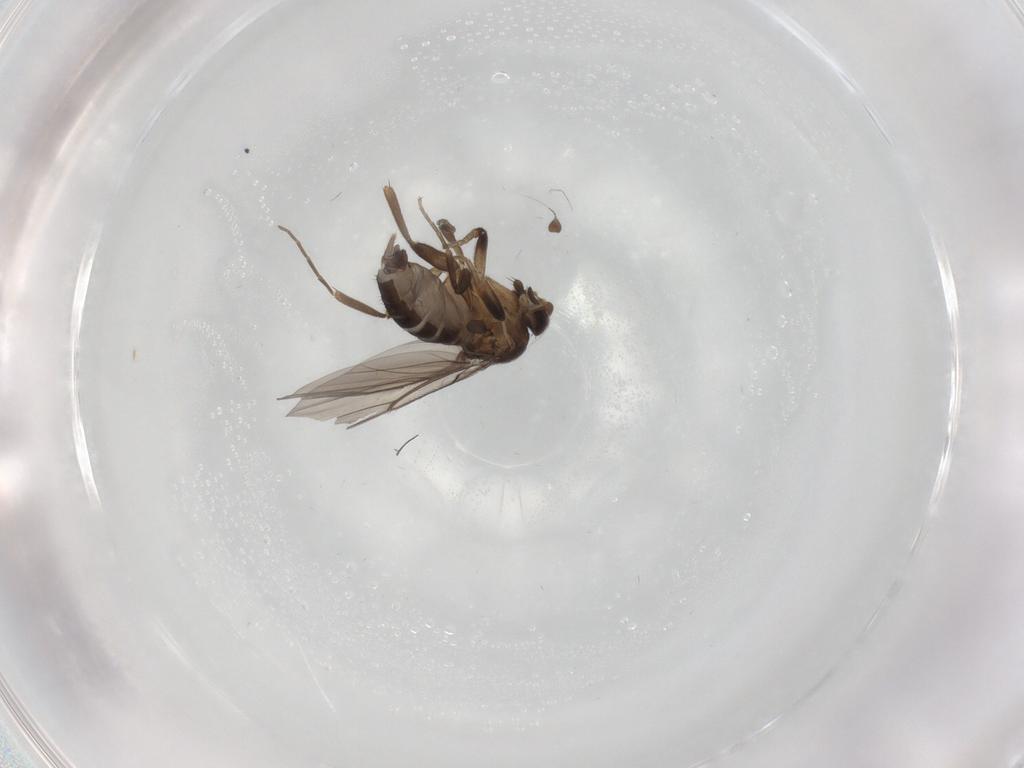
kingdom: Animalia
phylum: Arthropoda
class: Insecta
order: Diptera
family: Phoridae
